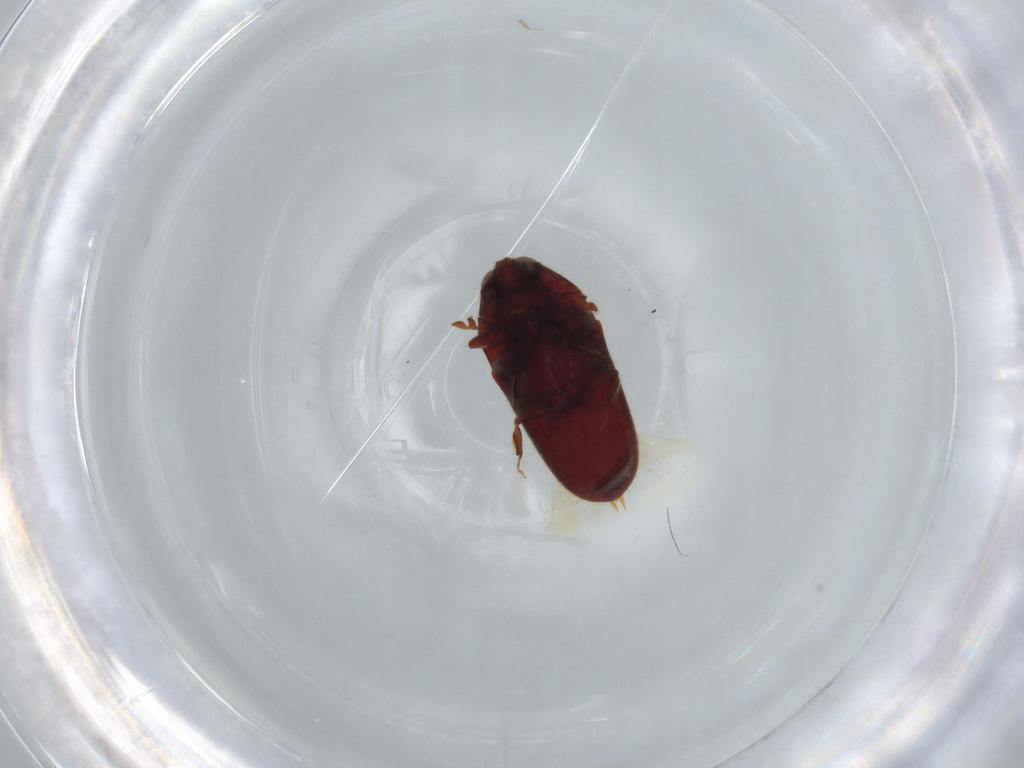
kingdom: Animalia
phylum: Arthropoda
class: Insecta
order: Coleoptera
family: Throscidae
